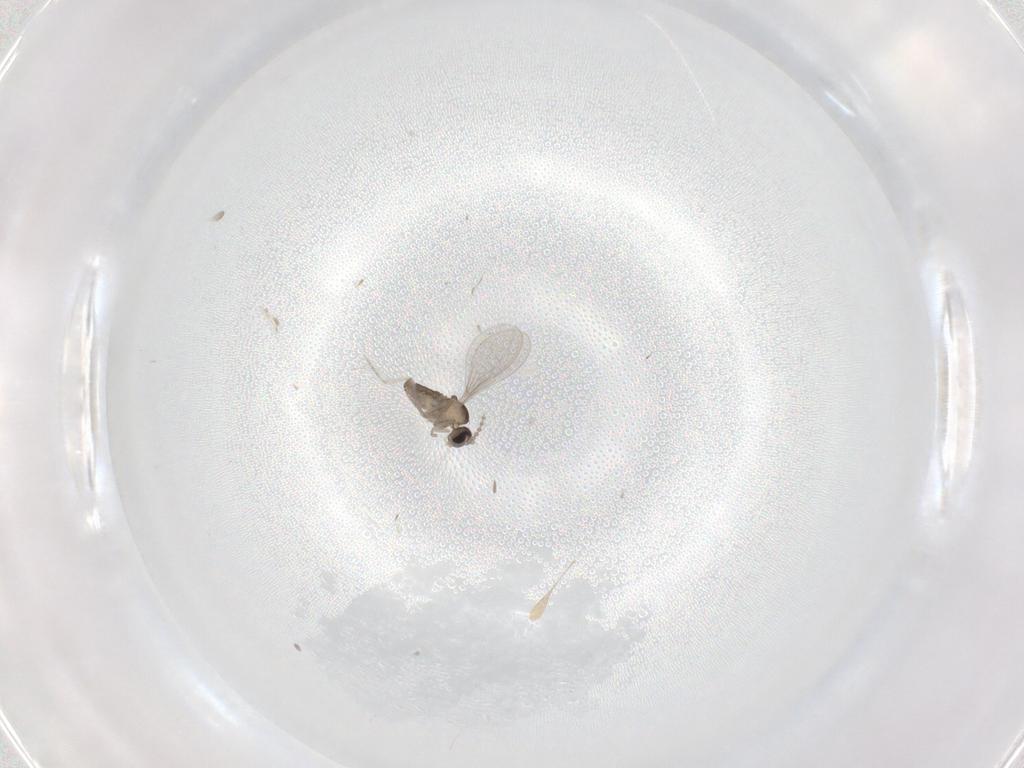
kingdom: Animalia
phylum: Arthropoda
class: Insecta
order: Diptera
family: Cecidomyiidae
